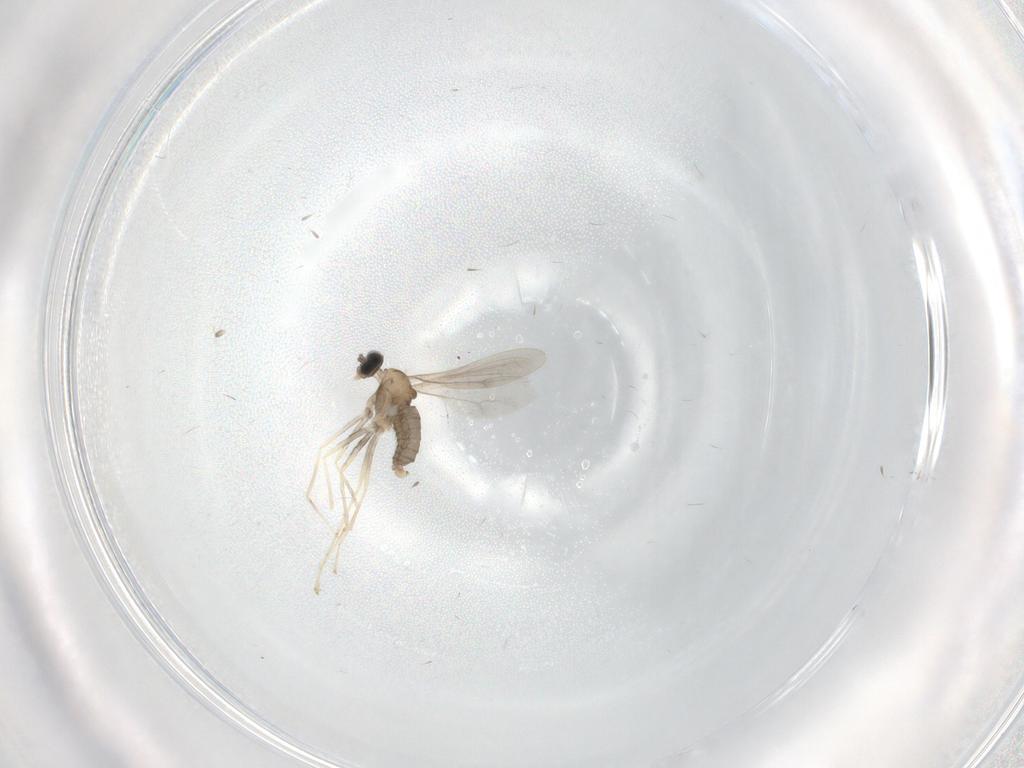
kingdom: Animalia
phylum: Arthropoda
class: Insecta
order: Diptera
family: Cecidomyiidae
